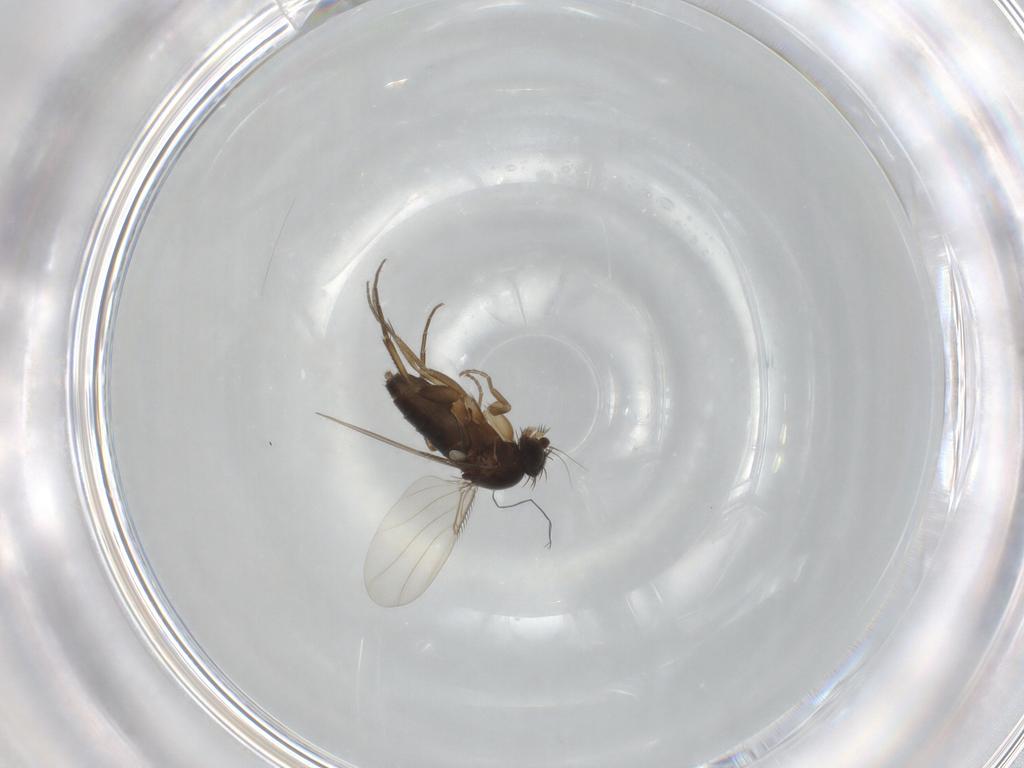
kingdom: Animalia
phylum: Arthropoda
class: Insecta
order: Diptera
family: Phoridae
